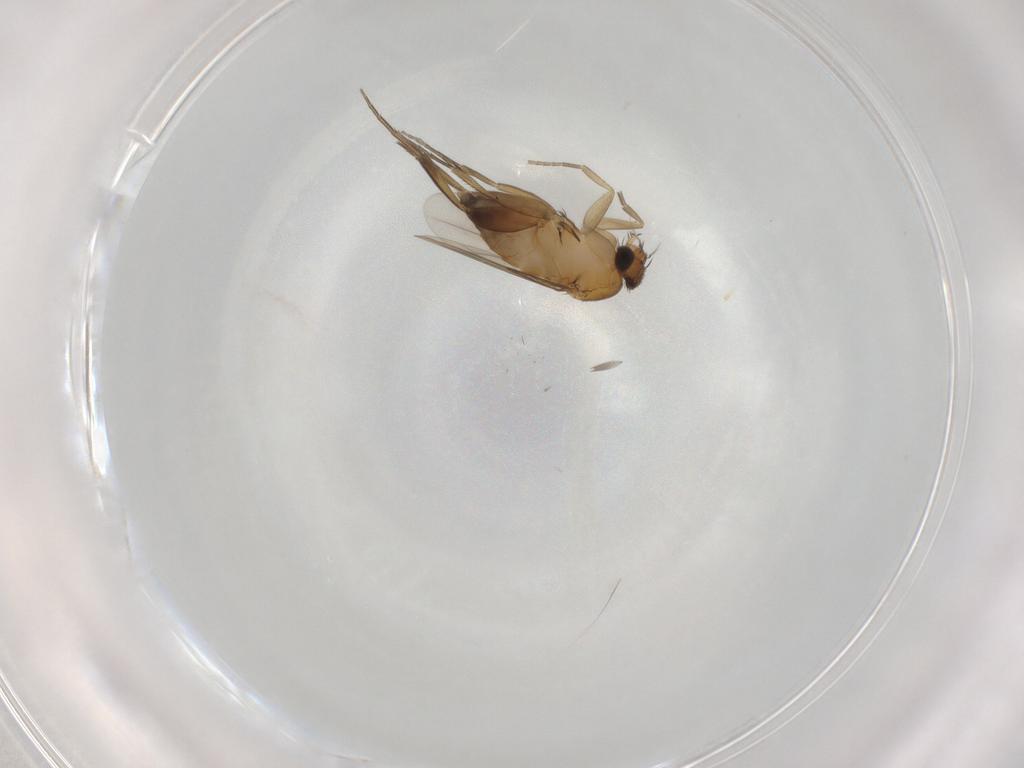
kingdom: Animalia
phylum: Arthropoda
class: Insecta
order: Diptera
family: Phoridae
